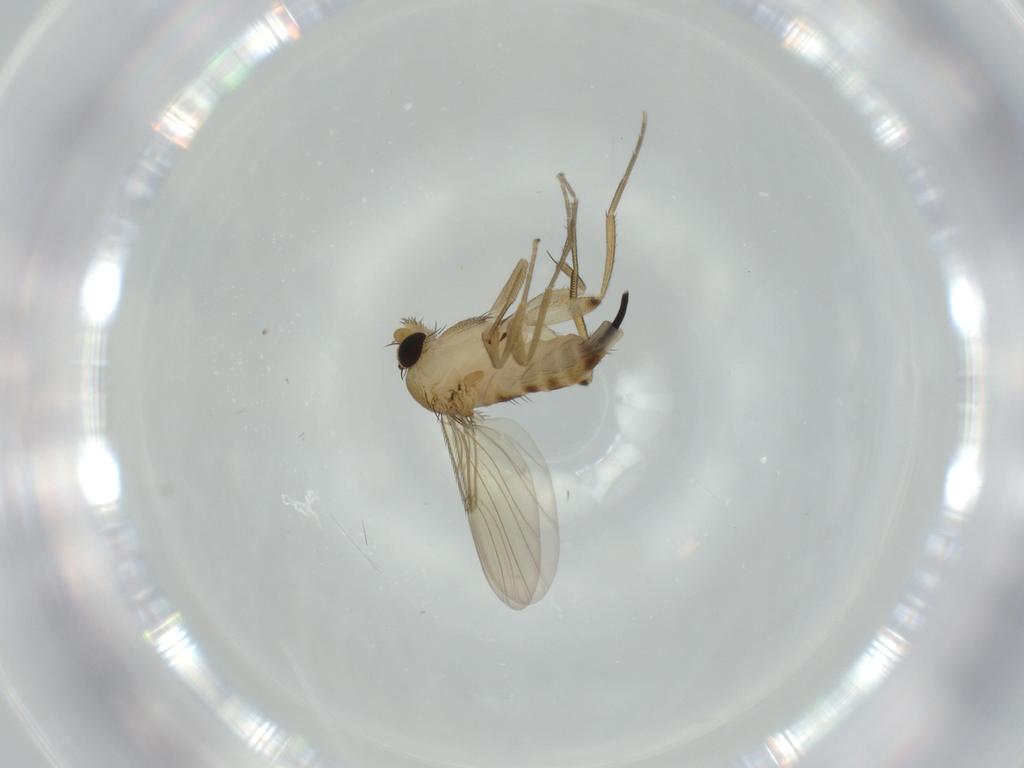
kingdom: Animalia
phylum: Arthropoda
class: Insecta
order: Diptera
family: Phoridae
